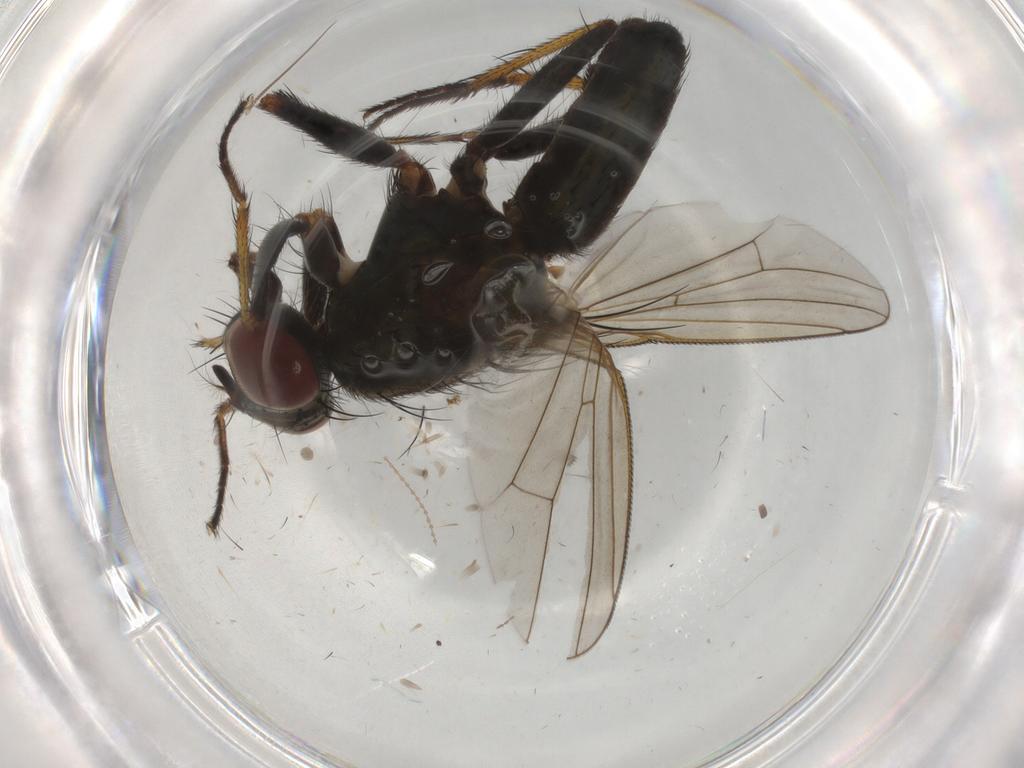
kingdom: Animalia
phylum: Arthropoda
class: Insecta
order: Diptera
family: Muscidae
